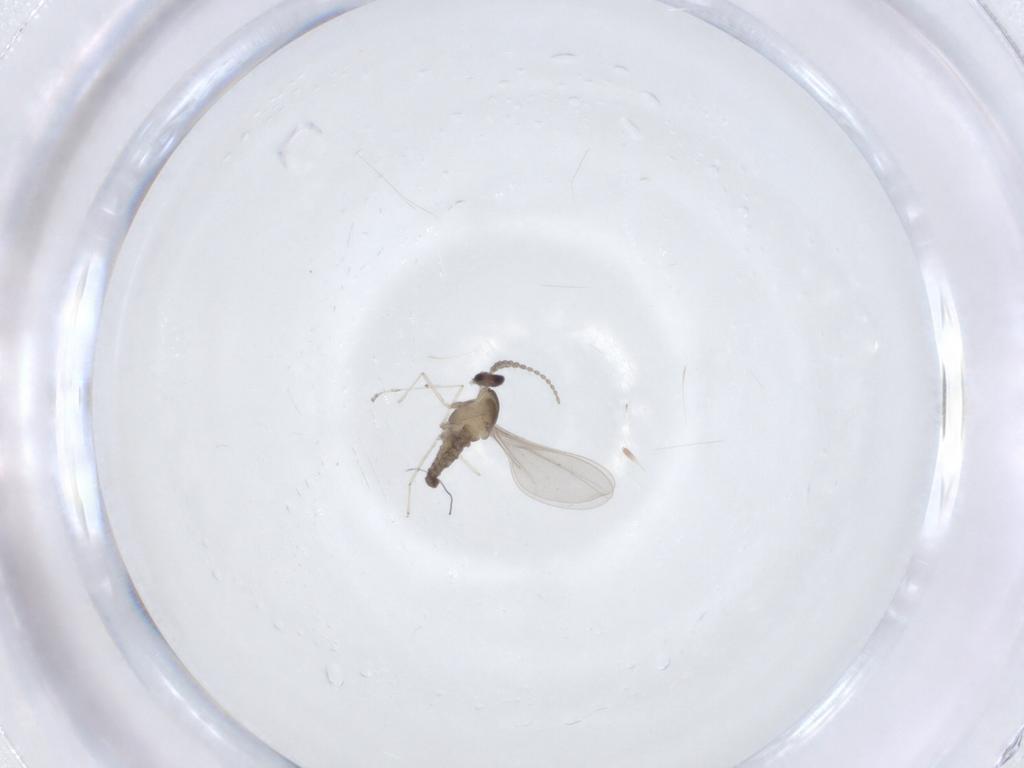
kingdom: Animalia
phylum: Arthropoda
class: Insecta
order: Diptera
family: Cecidomyiidae
